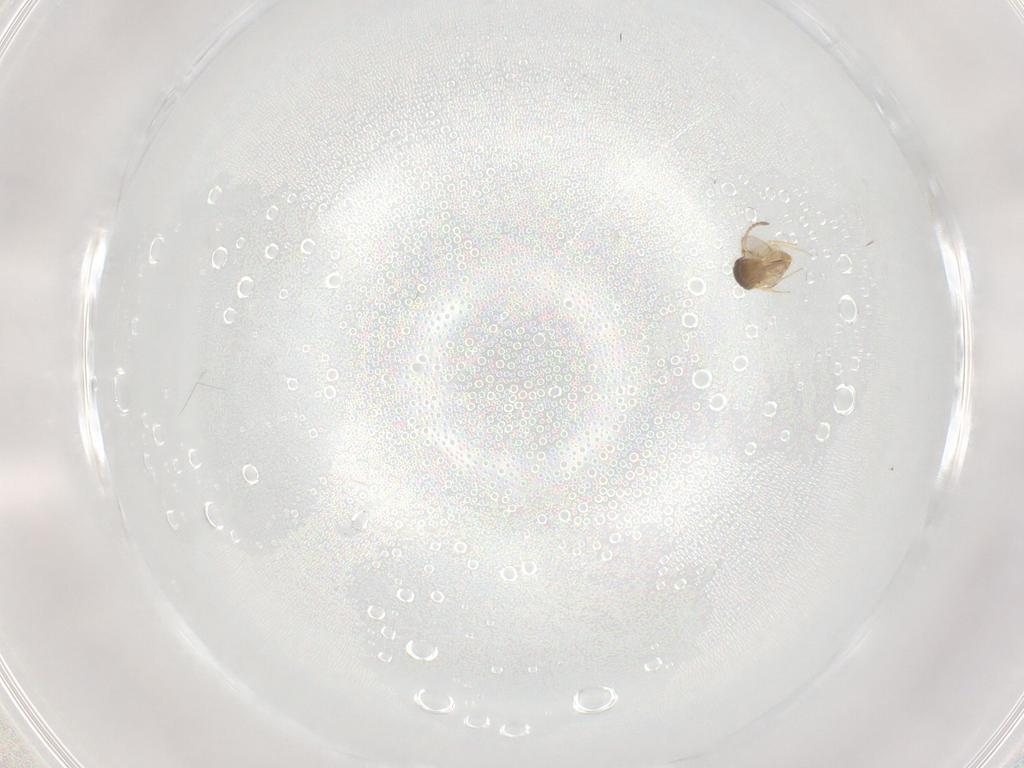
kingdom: Animalia
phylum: Arthropoda
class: Insecta
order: Hymenoptera
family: Scelionidae
